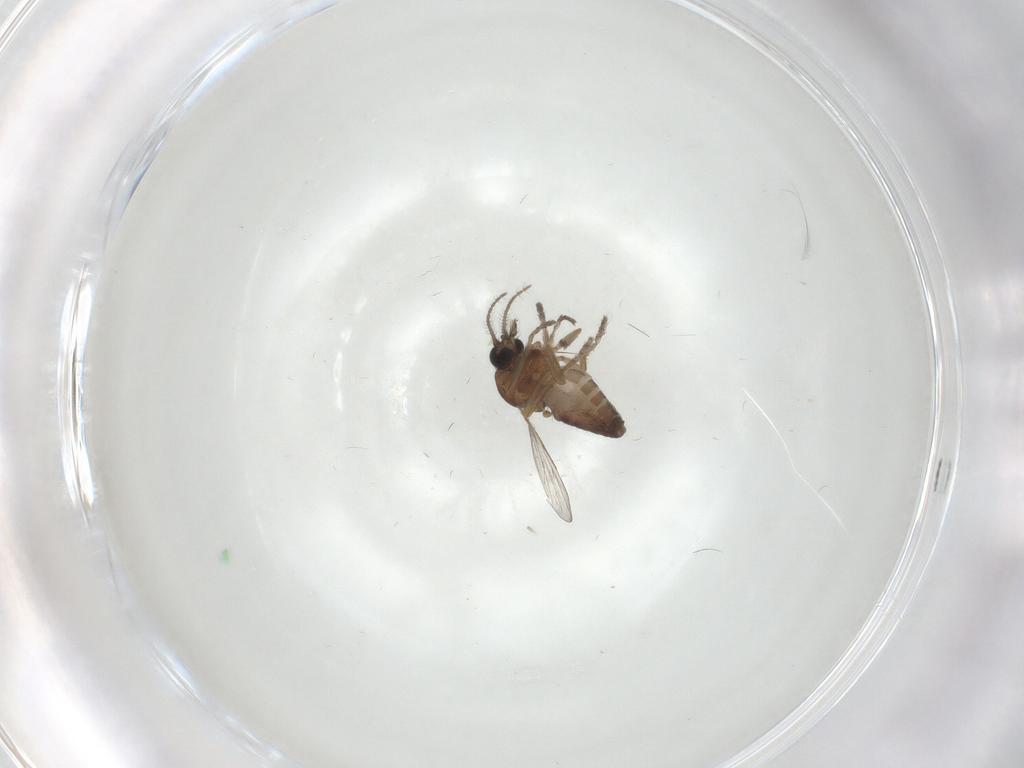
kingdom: Animalia
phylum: Arthropoda
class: Insecta
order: Diptera
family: Ceratopogonidae
